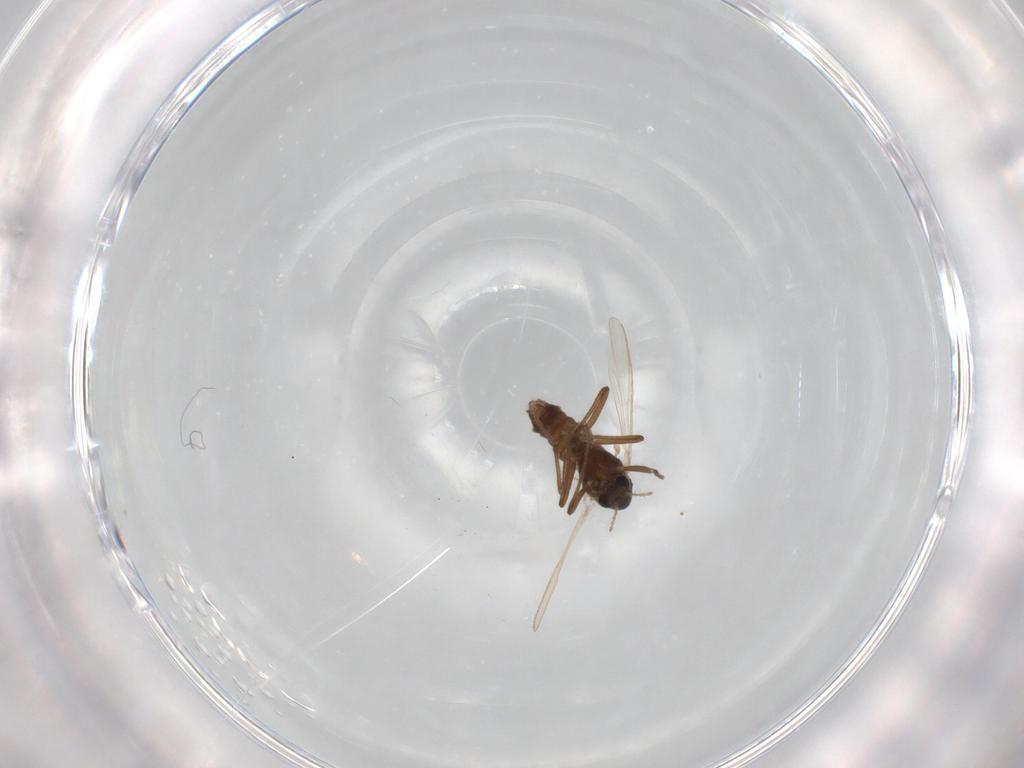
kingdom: Animalia
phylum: Arthropoda
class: Insecta
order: Diptera
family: Chironomidae
